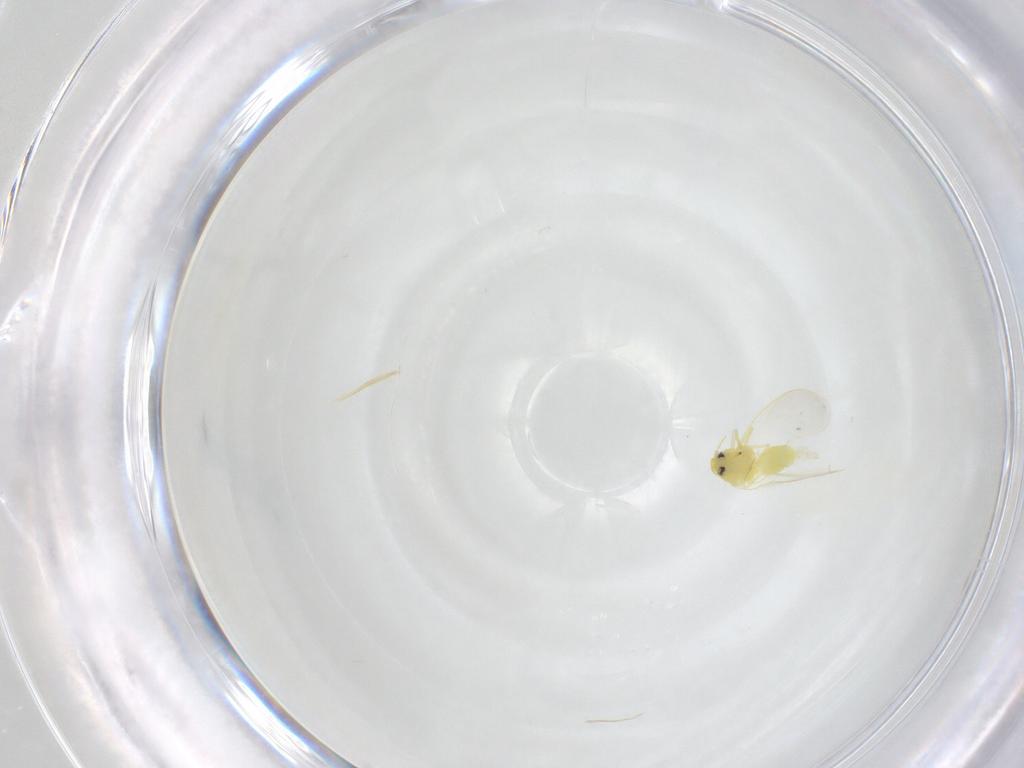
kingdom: Animalia
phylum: Arthropoda
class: Insecta
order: Hemiptera
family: Aleyrodidae
